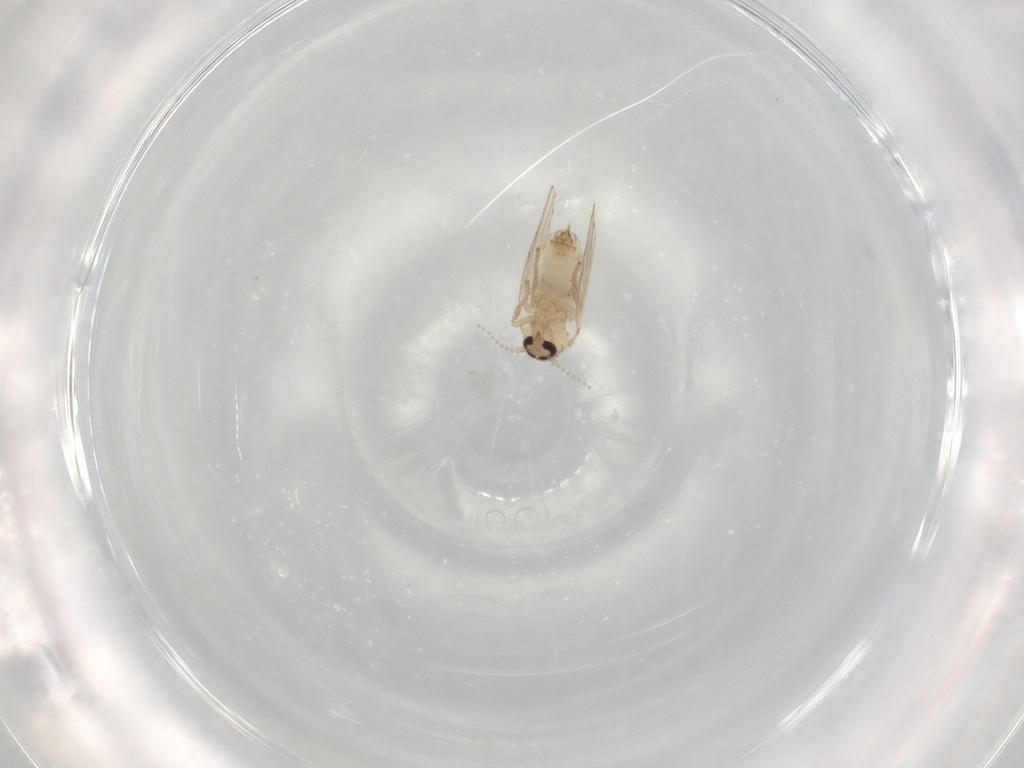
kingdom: Animalia
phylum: Arthropoda
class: Insecta
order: Diptera
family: Psychodidae
